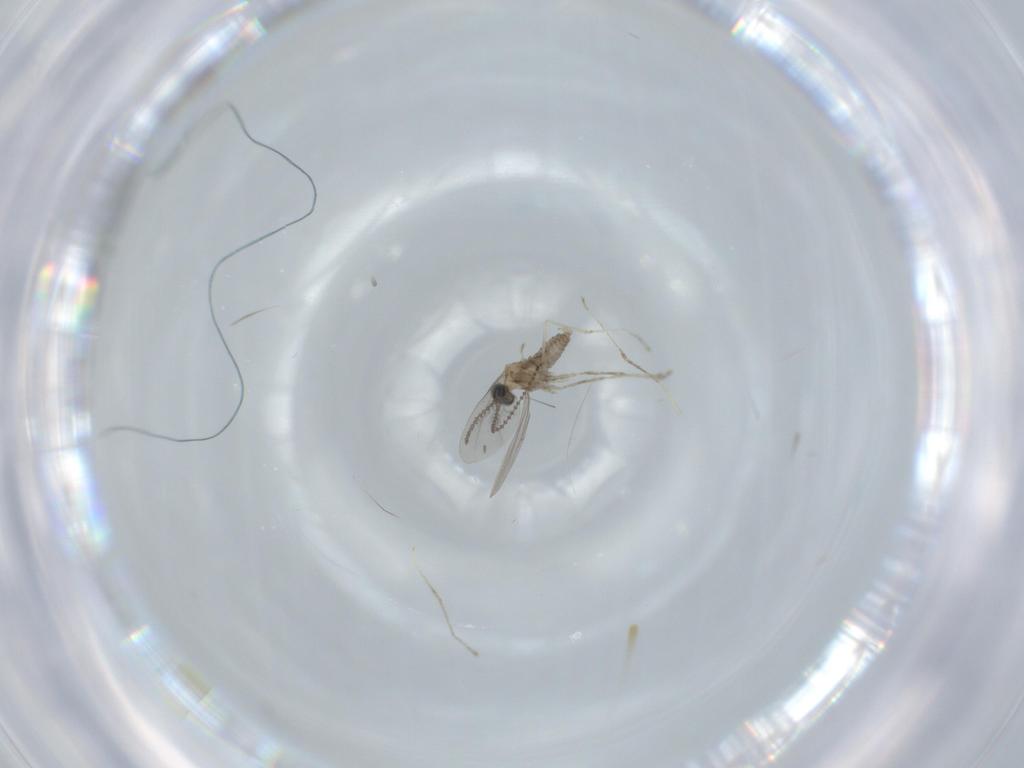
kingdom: Animalia
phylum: Arthropoda
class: Insecta
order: Diptera
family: Cecidomyiidae
